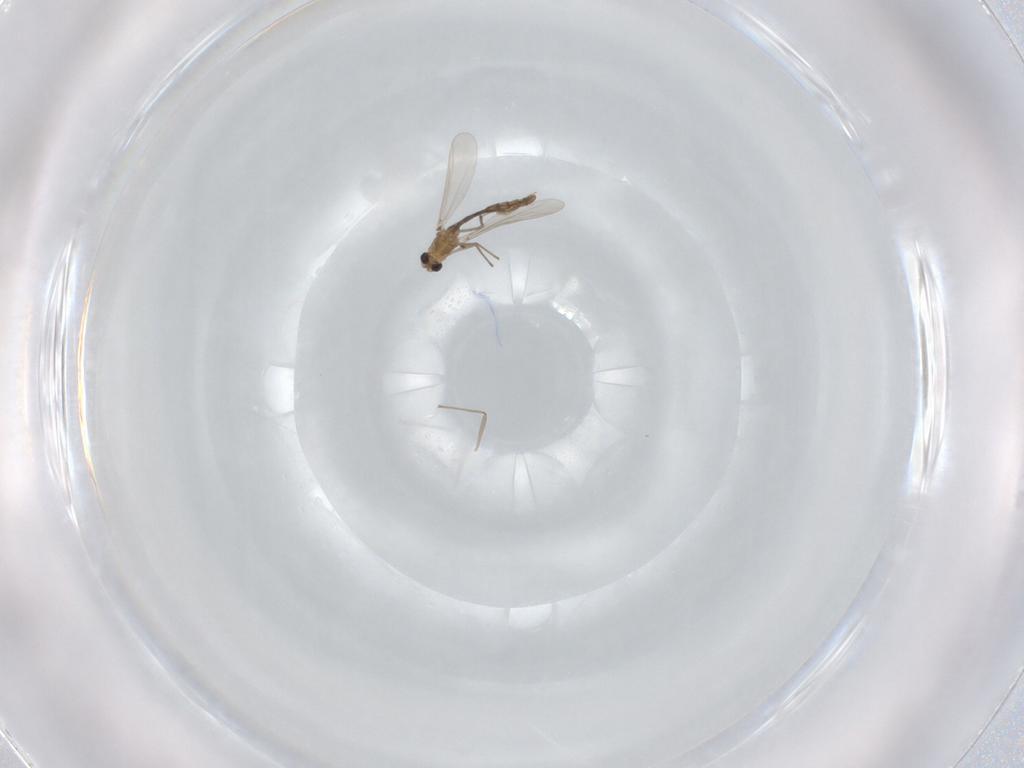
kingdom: Animalia
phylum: Arthropoda
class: Insecta
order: Diptera
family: Chironomidae
